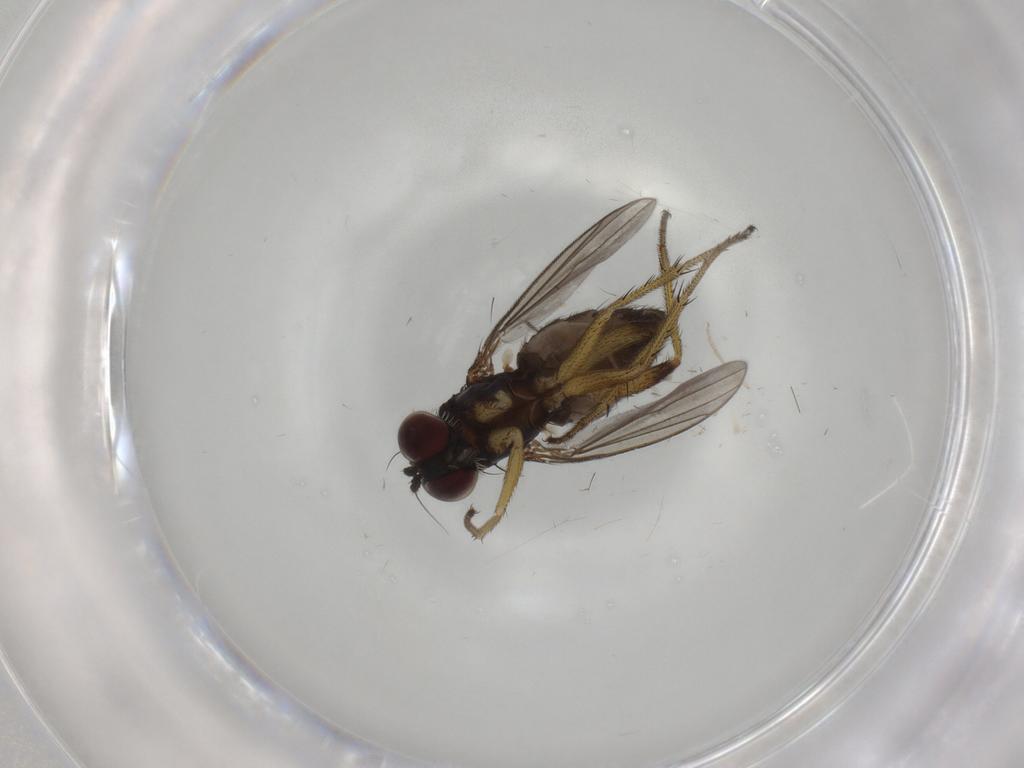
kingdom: Animalia
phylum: Arthropoda
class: Insecta
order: Diptera
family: Dolichopodidae
